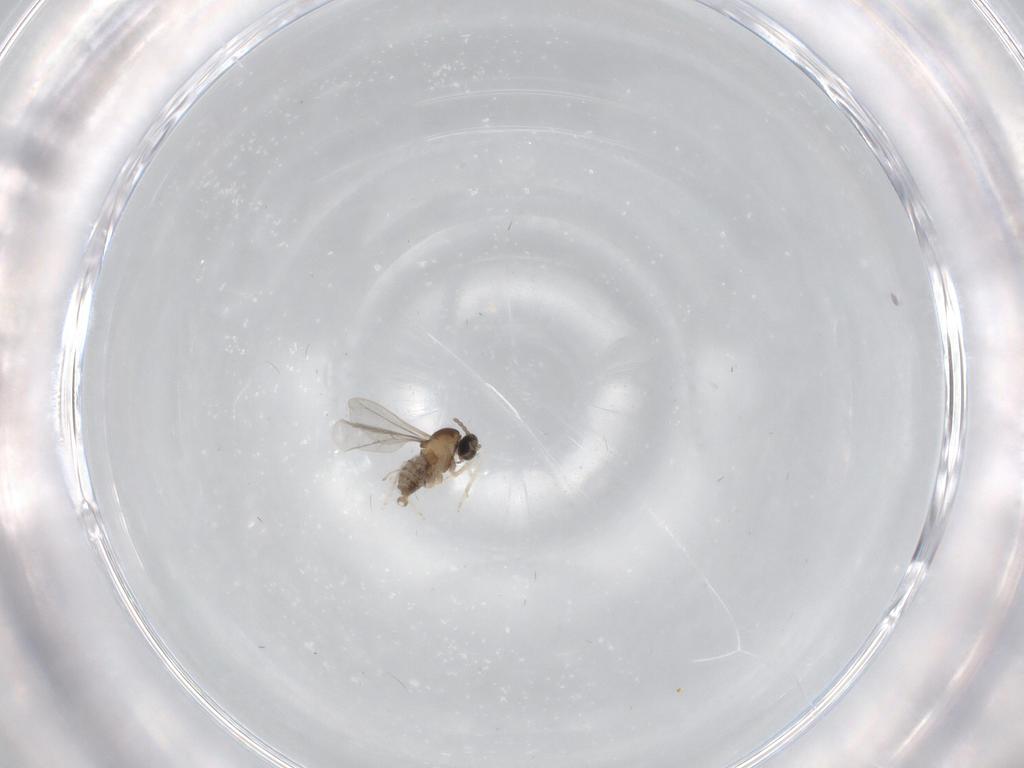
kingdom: Animalia
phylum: Arthropoda
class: Insecta
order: Diptera
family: Cecidomyiidae
